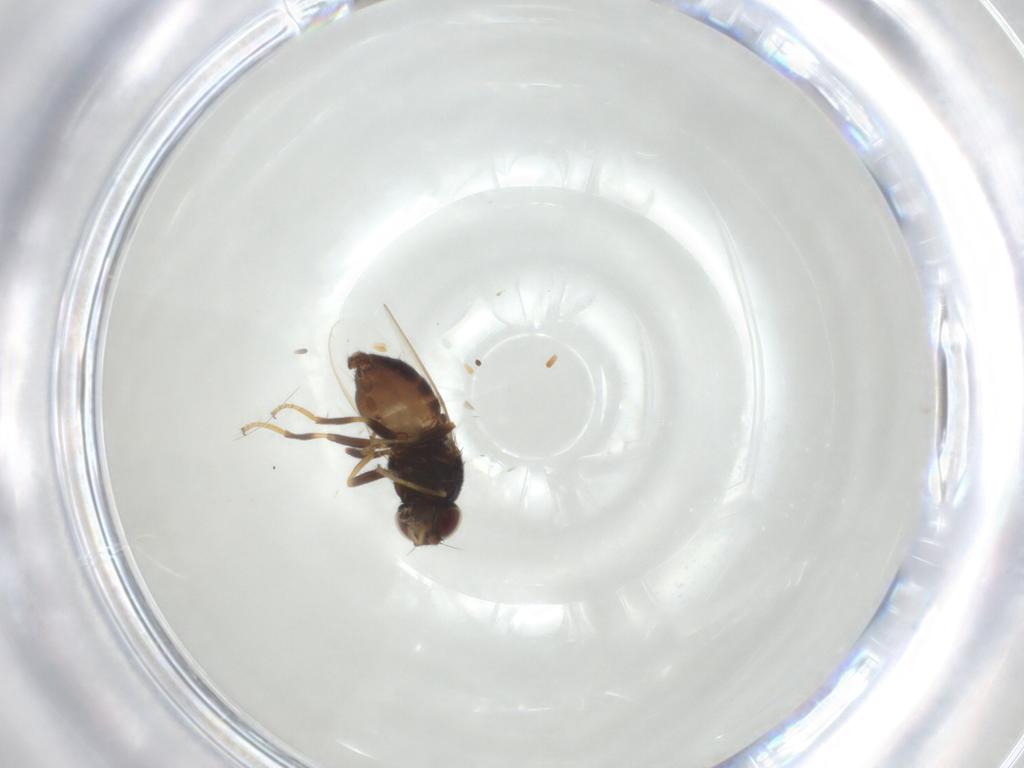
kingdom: Animalia
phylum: Arthropoda
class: Insecta
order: Diptera
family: Chloropidae
